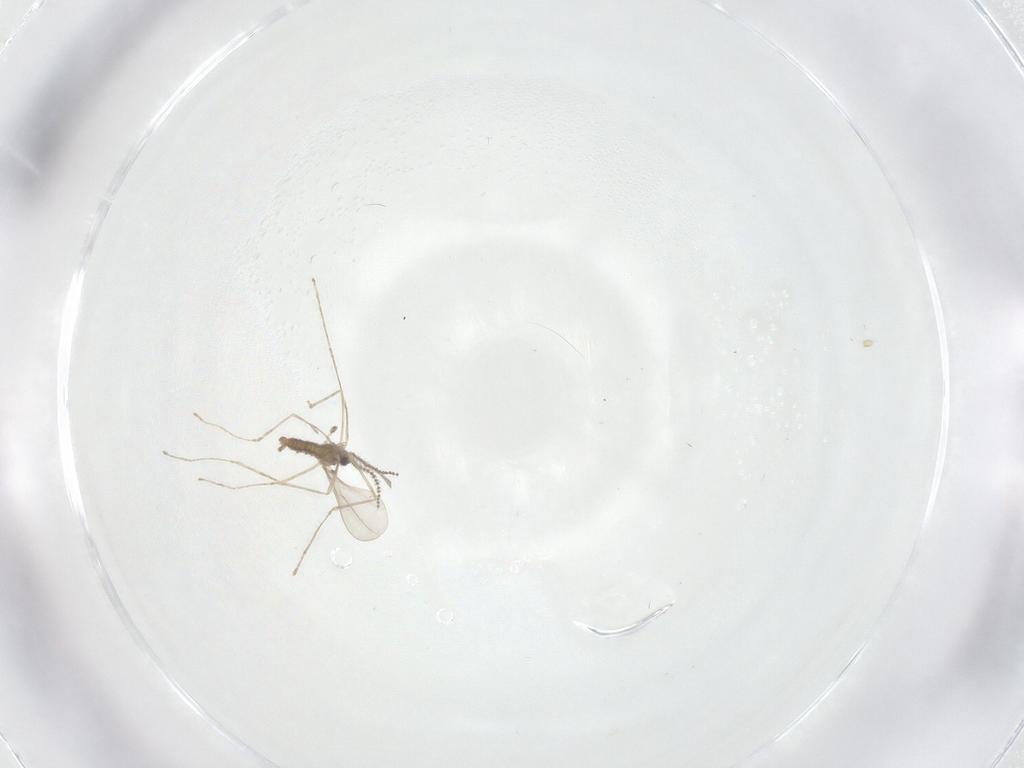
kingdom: Animalia
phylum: Arthropoda
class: Insecta
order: Diptera
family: Cecidomyiidae
